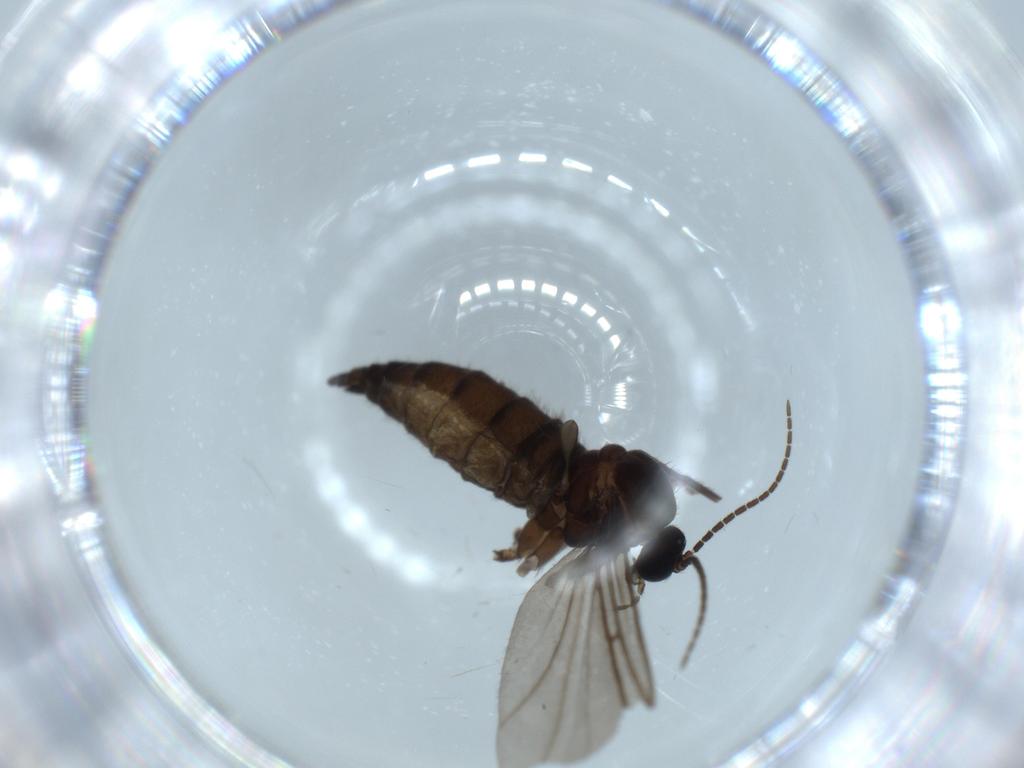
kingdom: Animalia
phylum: Arthropoda
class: Insecta
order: Diptera
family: Sciaridae
